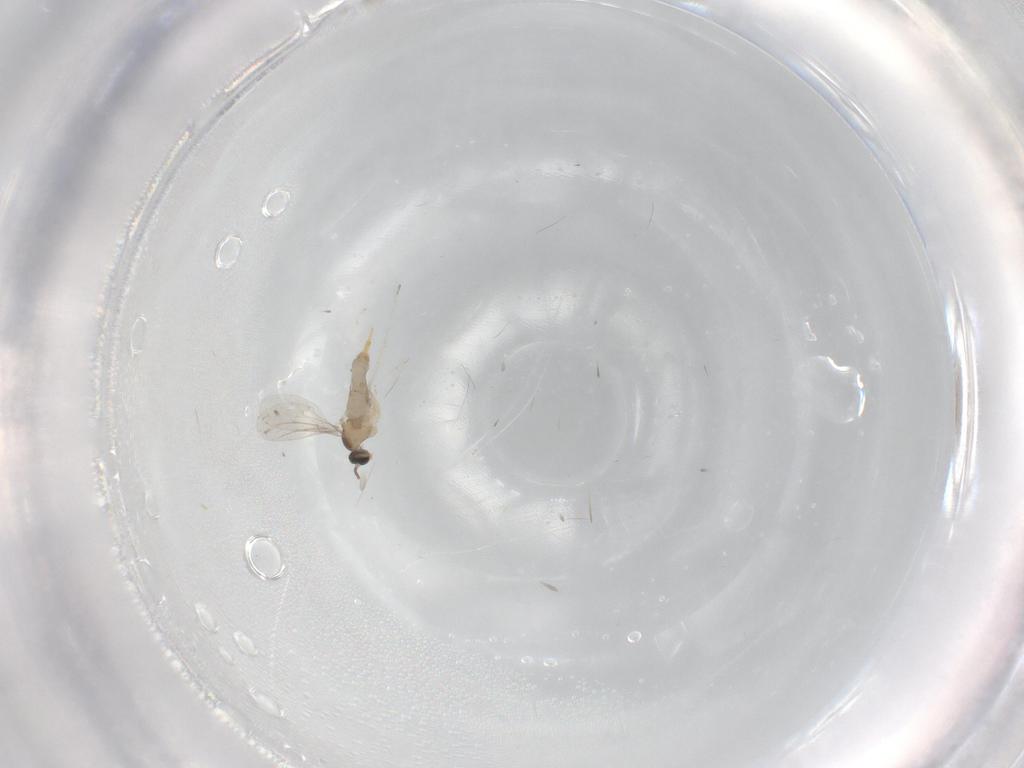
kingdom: Animalia
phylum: Arthropoda
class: Insecta
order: Diptera
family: Cecidomyiidae
